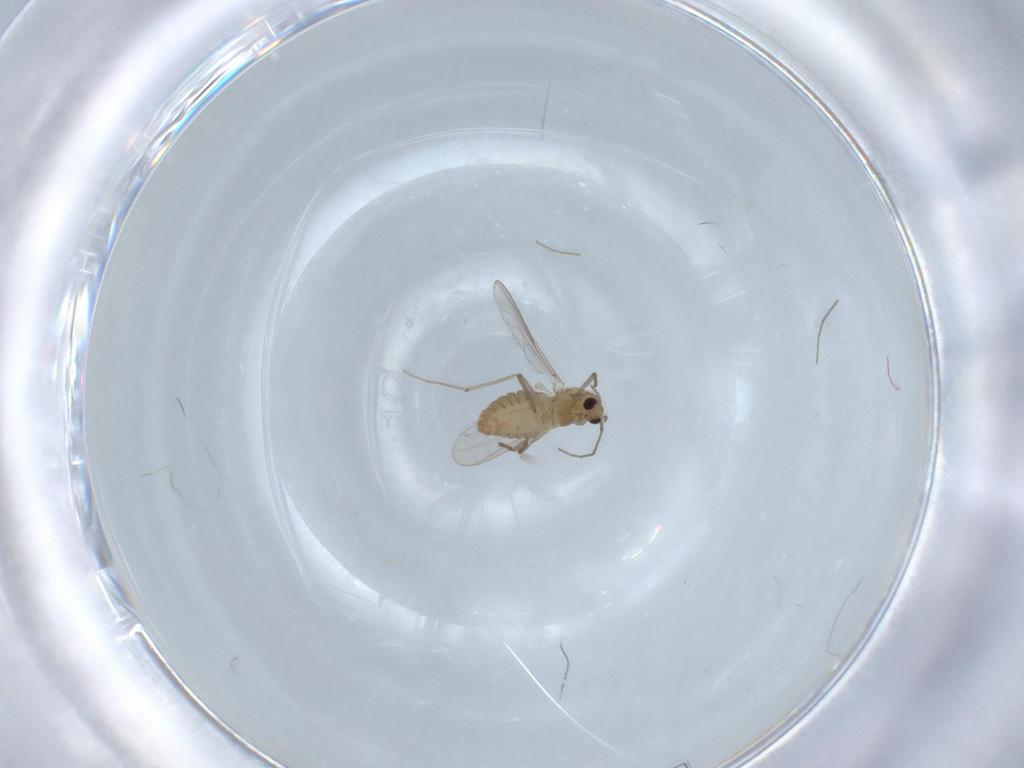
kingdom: Animalia
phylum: Arthropoda
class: Insecta
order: Diptera
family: Chironomidae
